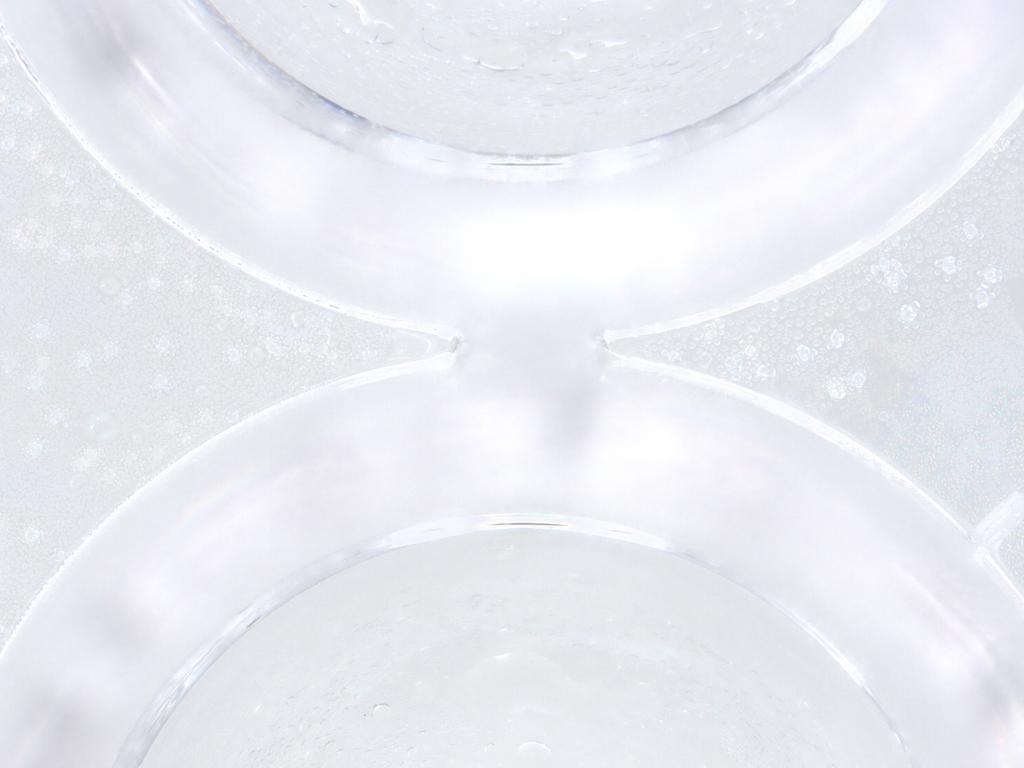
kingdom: Animalia
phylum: Arthropoda
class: Insecta
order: Diptera
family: Psychodidae
